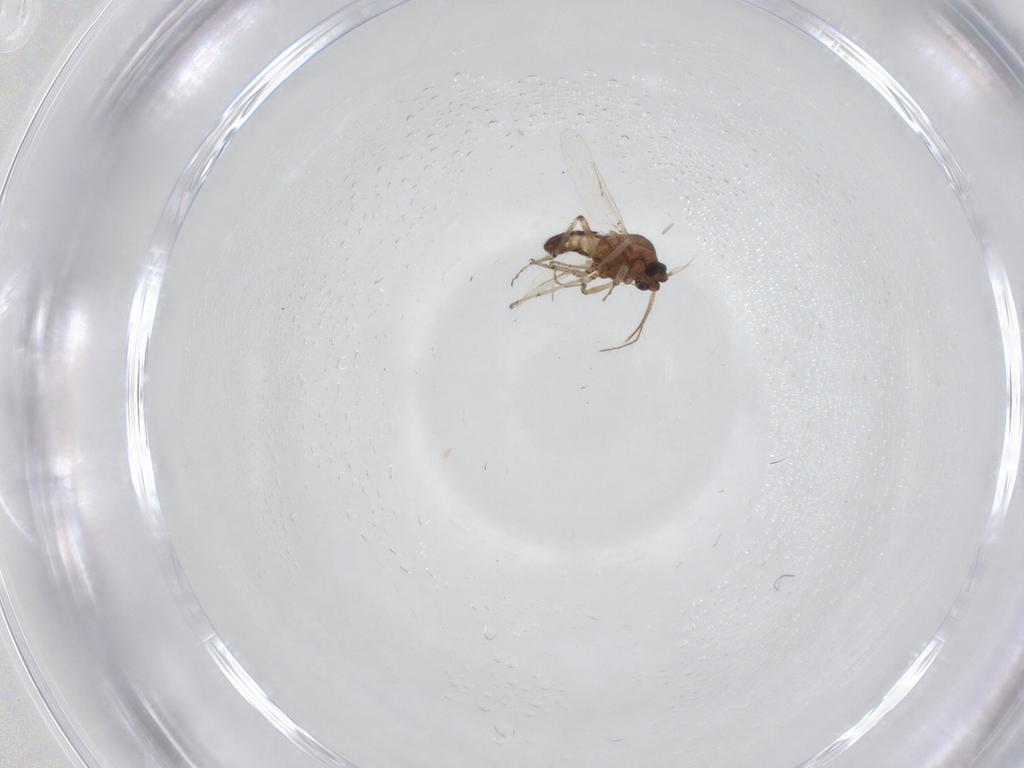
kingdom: Animalia
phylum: Arthropoda
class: Insecta
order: Diptera
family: Ceratopogonidae
